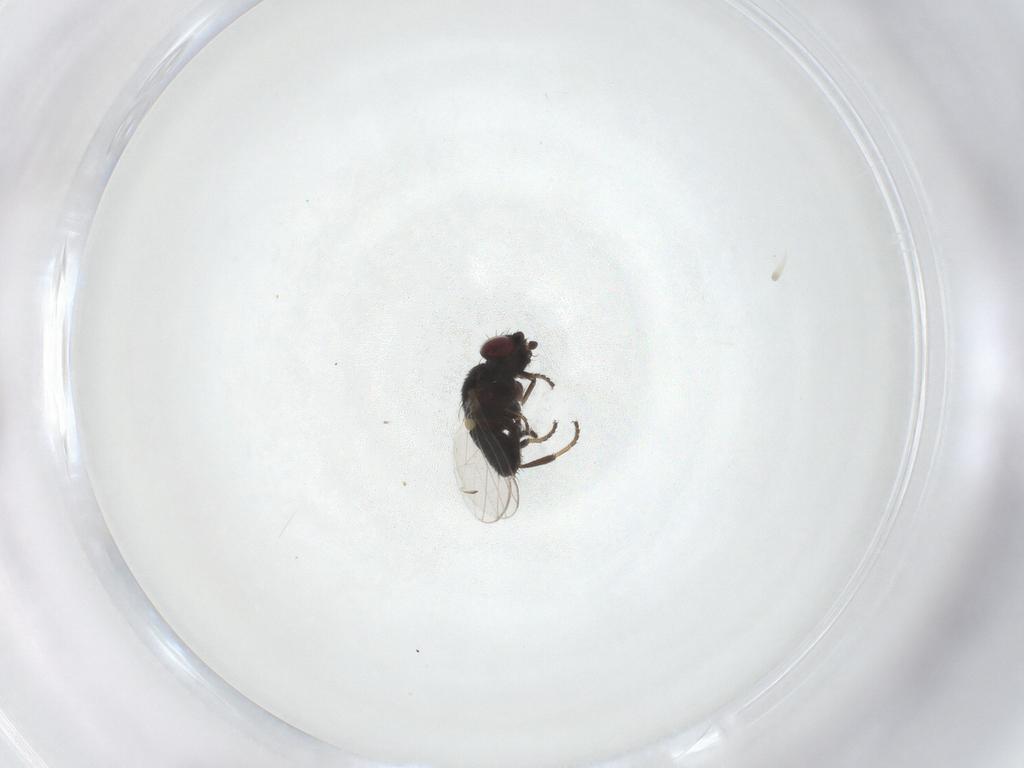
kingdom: Animalia
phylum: Arthropoda
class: Insecta
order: Diptera
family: Milichiidae
